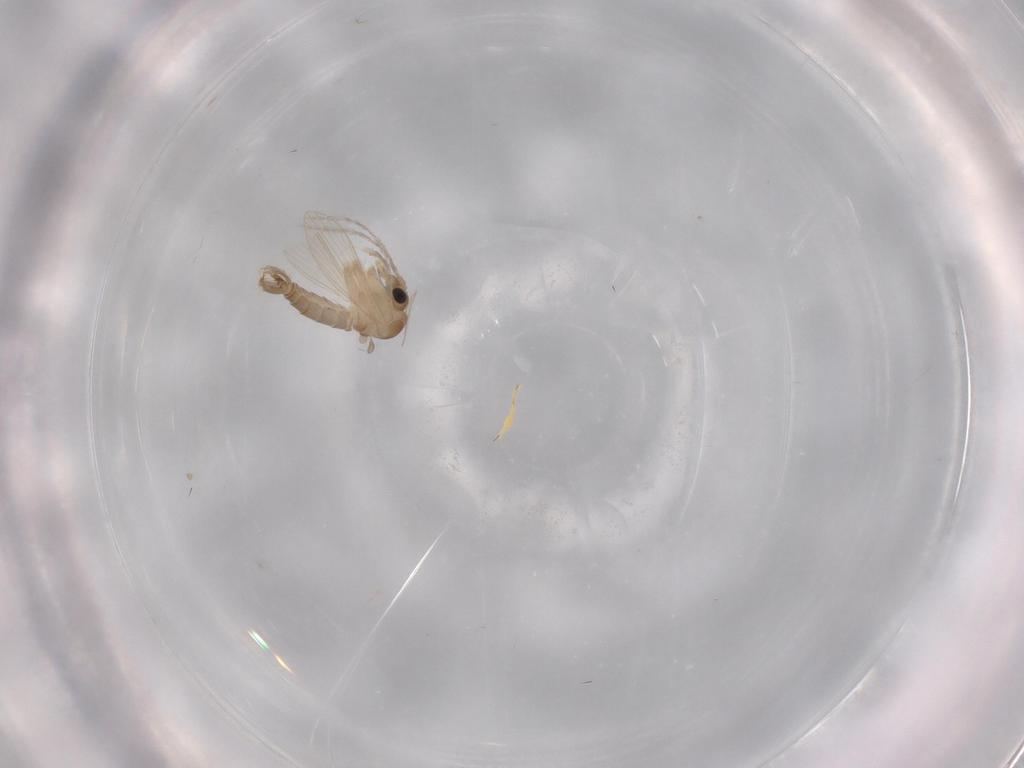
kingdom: Animalia
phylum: Arthropoda
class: Insecta
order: Diptera
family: Psychodidae
